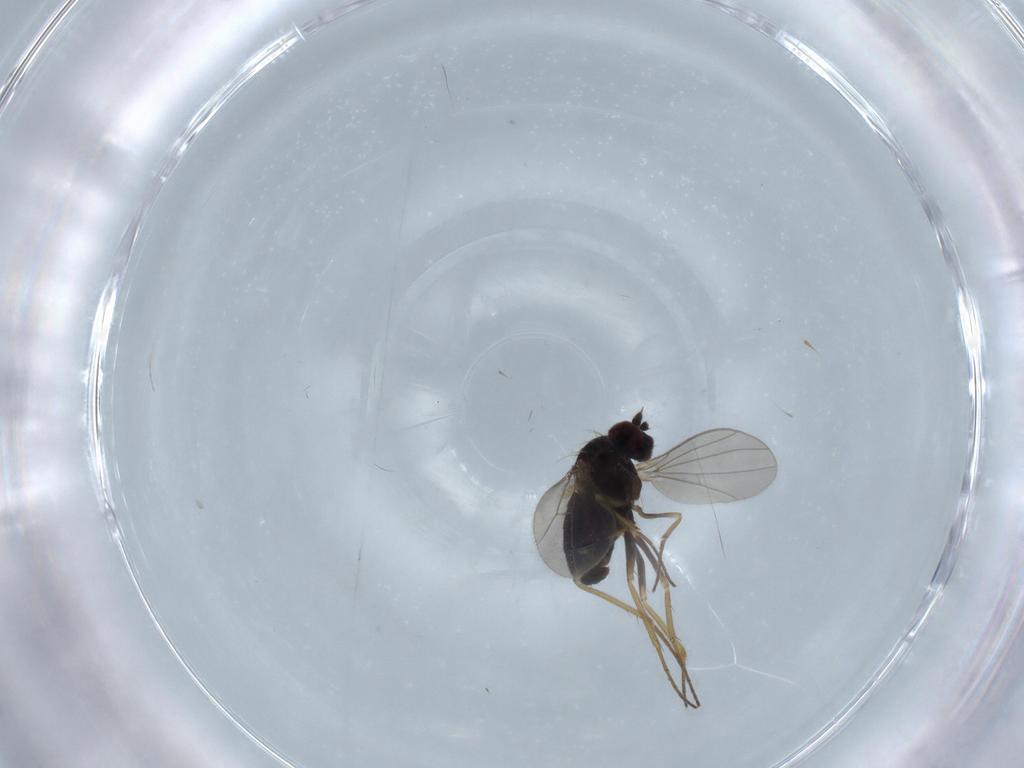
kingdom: Animalia
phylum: Arthropoda
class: Insecta
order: Diptera
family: Dolichopodidae
